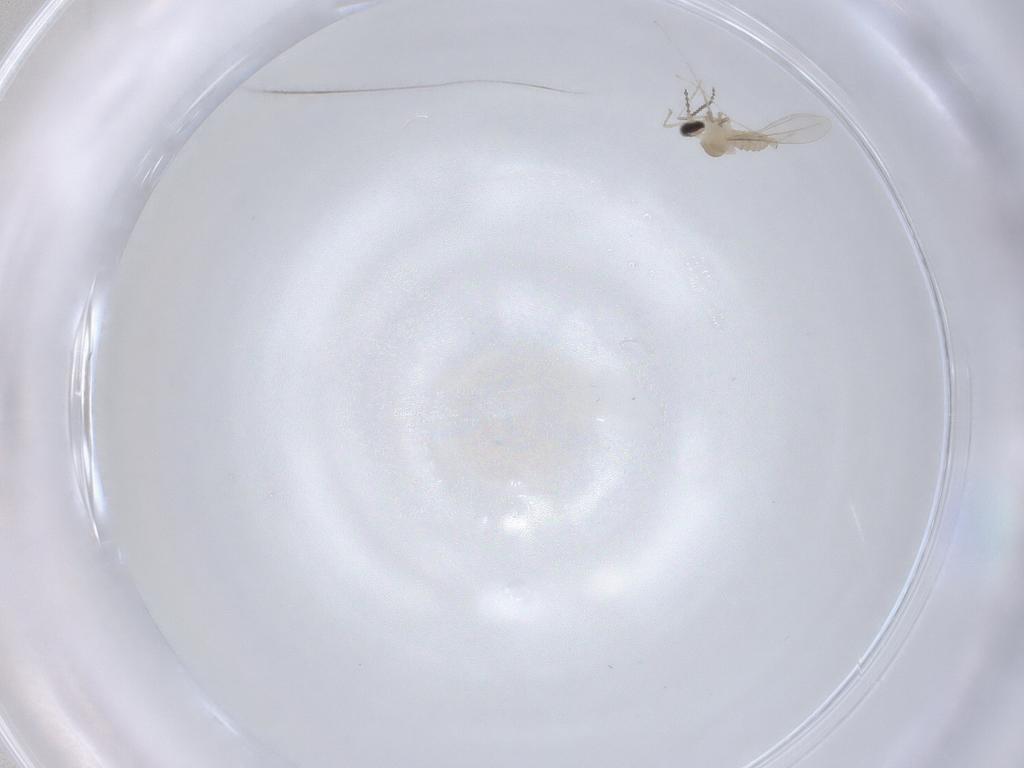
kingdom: Animalia
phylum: Arthropoda
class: Insecta
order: Diptera
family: Cecidomyiidae
